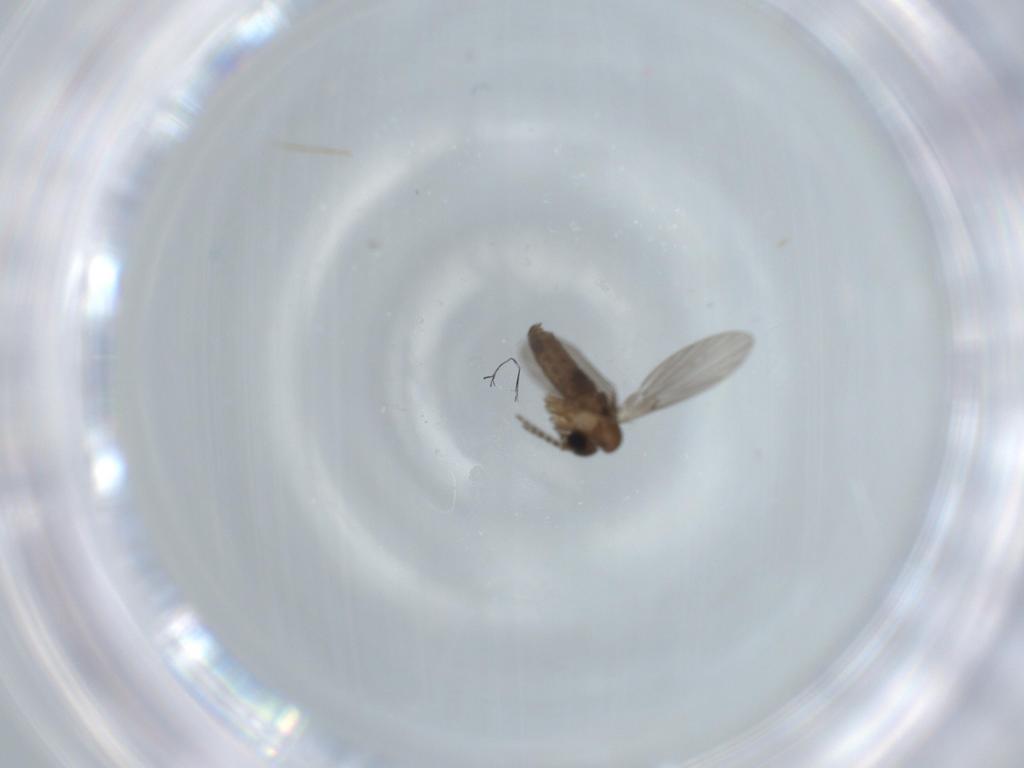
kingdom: Animalia
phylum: Arthropoda
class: Insecta
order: Diptera
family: Psychodidae
